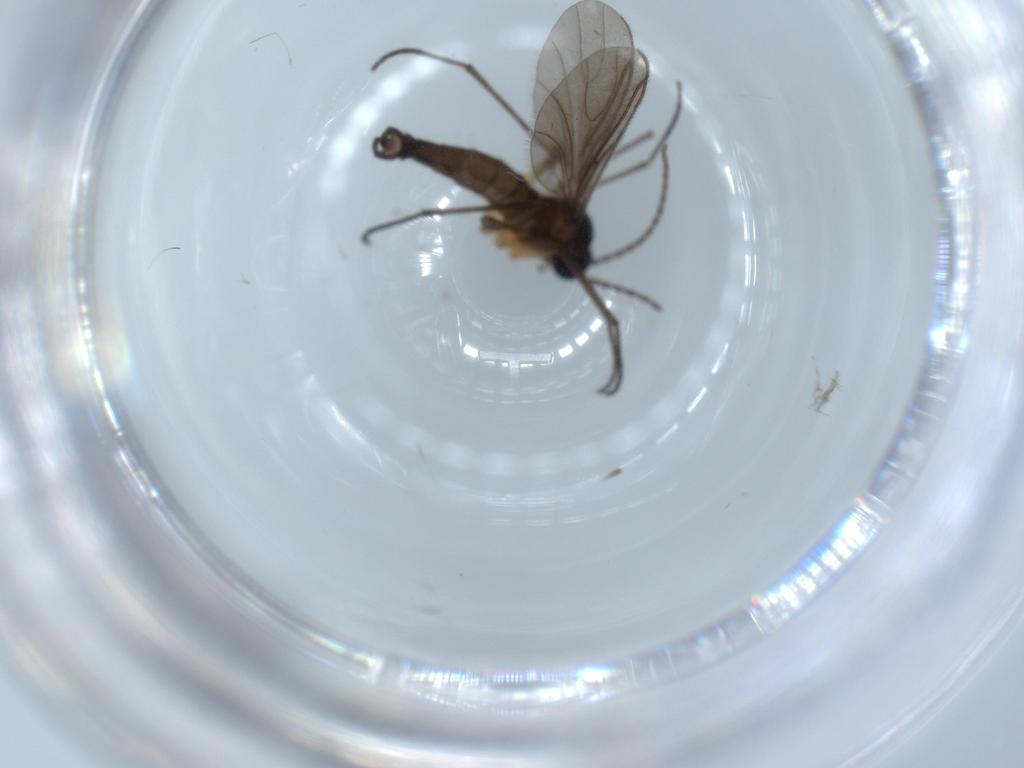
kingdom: Animalia
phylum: Arthropoda
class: Insecta
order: Diptera
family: Sciaridae
